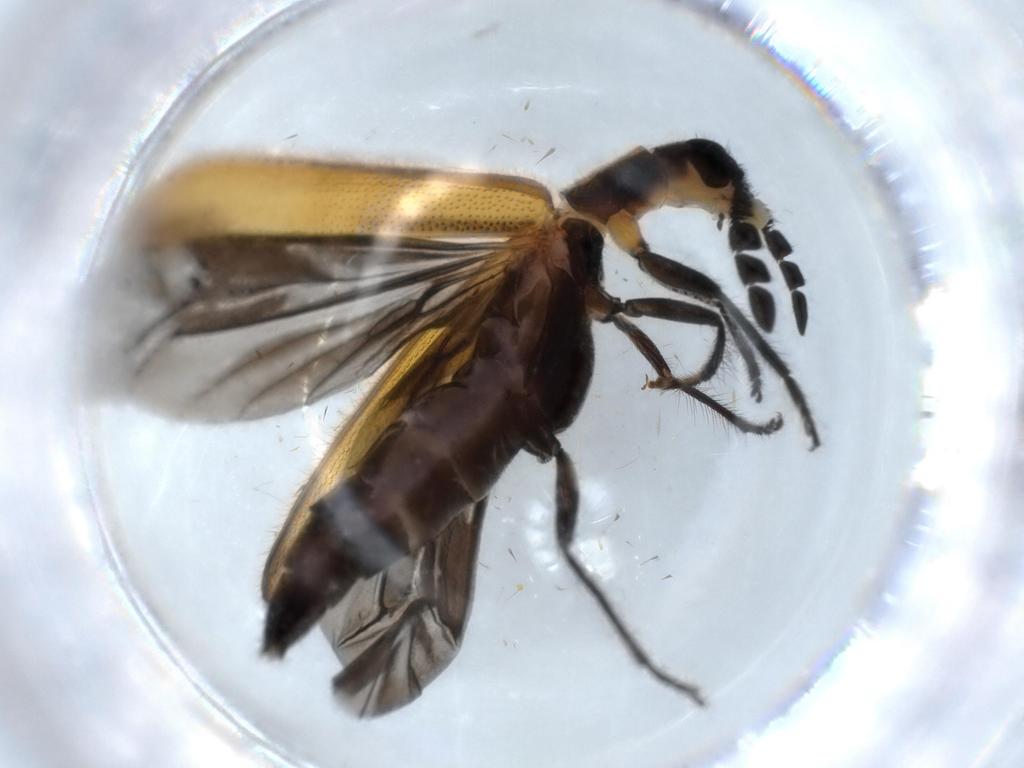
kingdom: Animalia
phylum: Arthropoda
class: Insecta
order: Coleoptera
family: Cleridae
